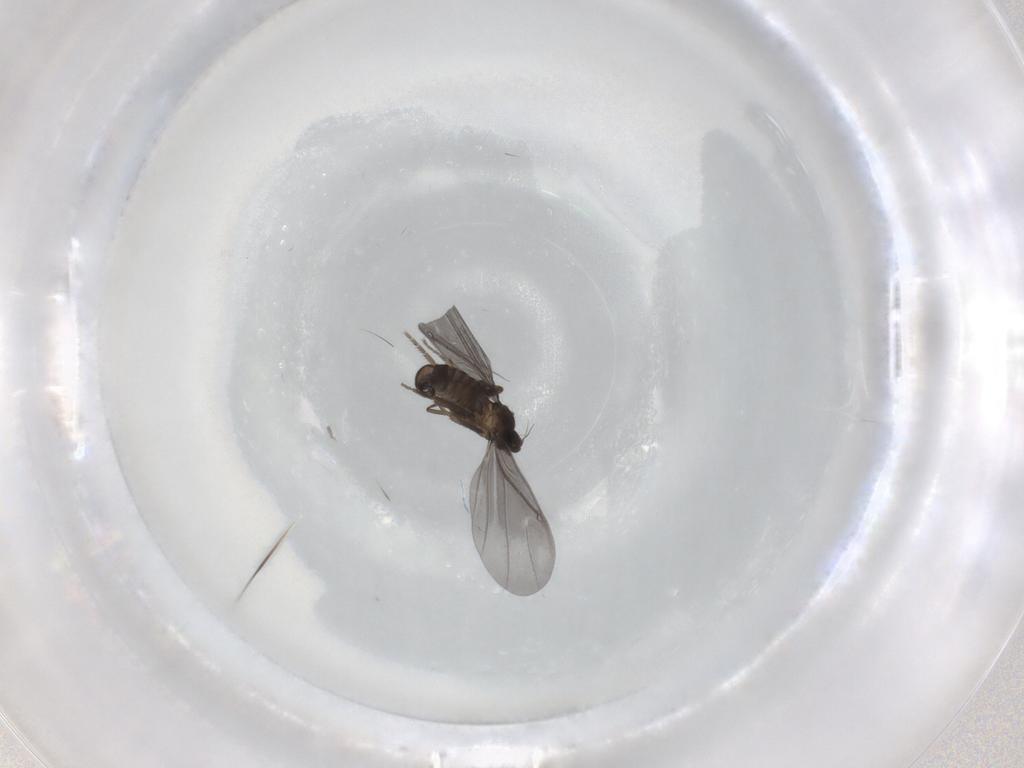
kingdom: Animalia
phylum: Arthropoda
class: Insecta
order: Diptera
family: Phoridae
